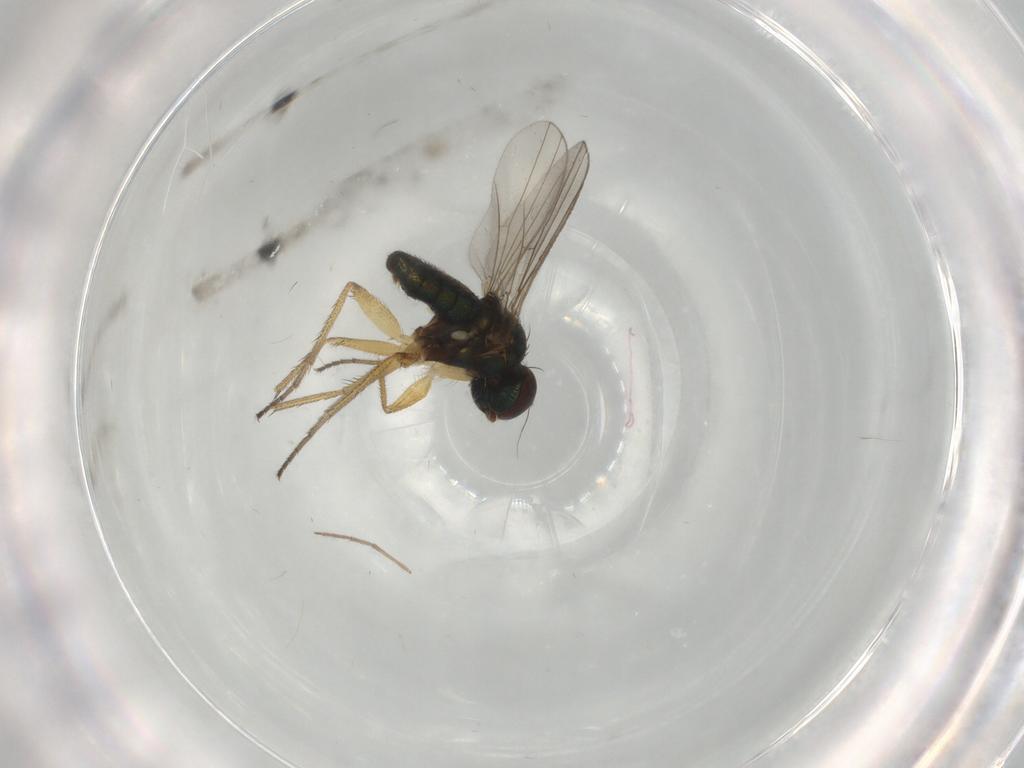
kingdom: Animalia
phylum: Arthropoda
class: Insecta
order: Diptera
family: Dolichopodidae
